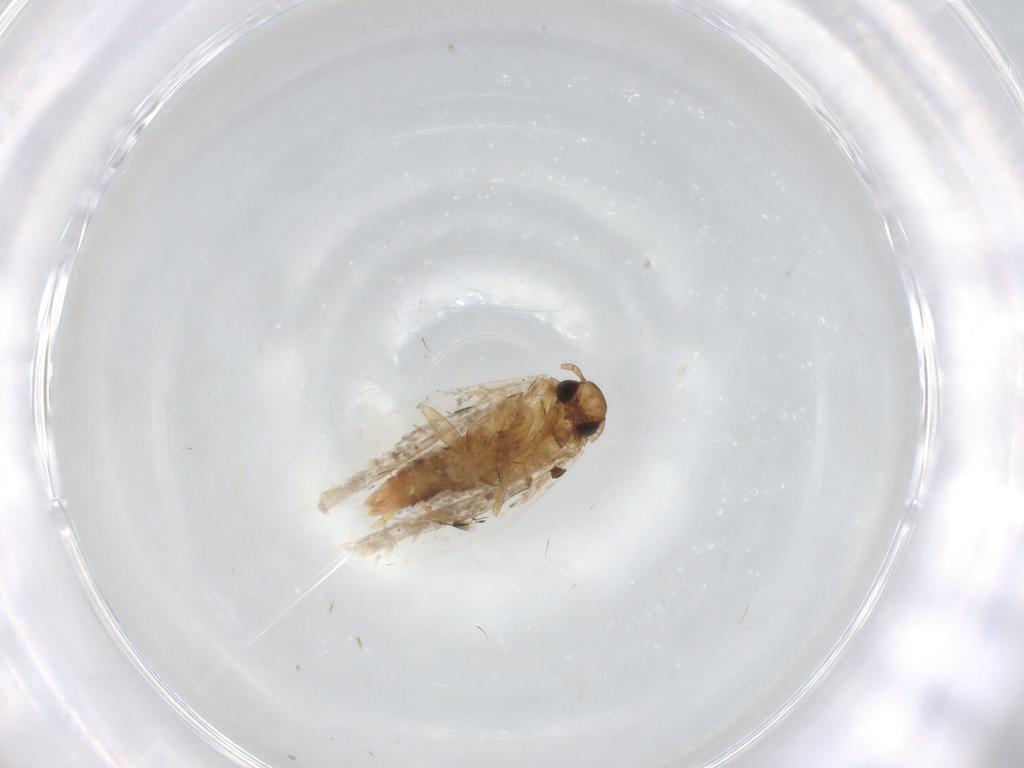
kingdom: Animalia
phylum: Arthropoda
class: Insecta
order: Lepidoptera
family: Gelechiidae
